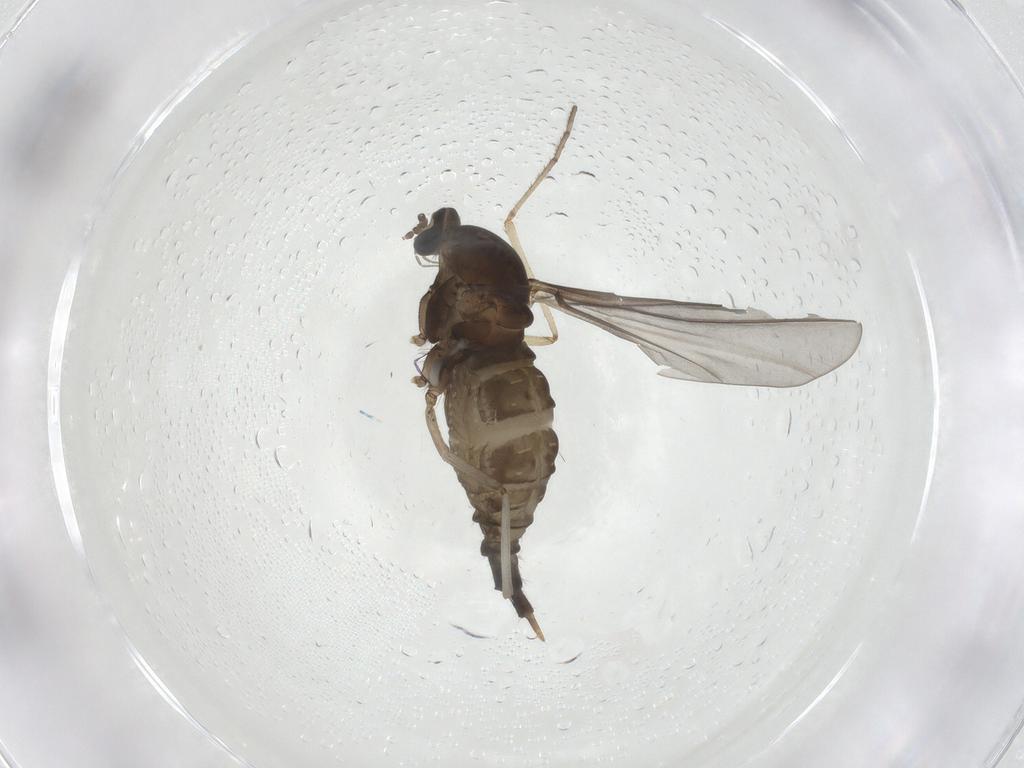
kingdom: Animalia
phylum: Arthropoda
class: Insecta
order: Diptera
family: Cecidomyiidae
